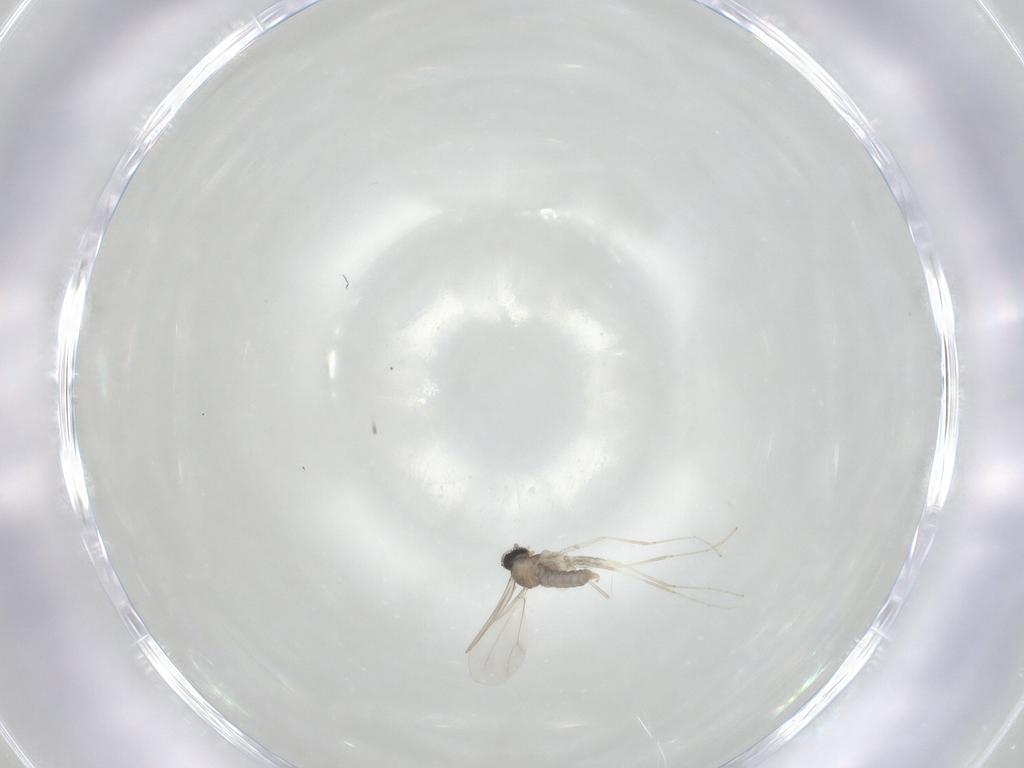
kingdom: Animalia
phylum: Arthropoda
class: Insecta
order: Diptera
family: Cecidomyiidae
